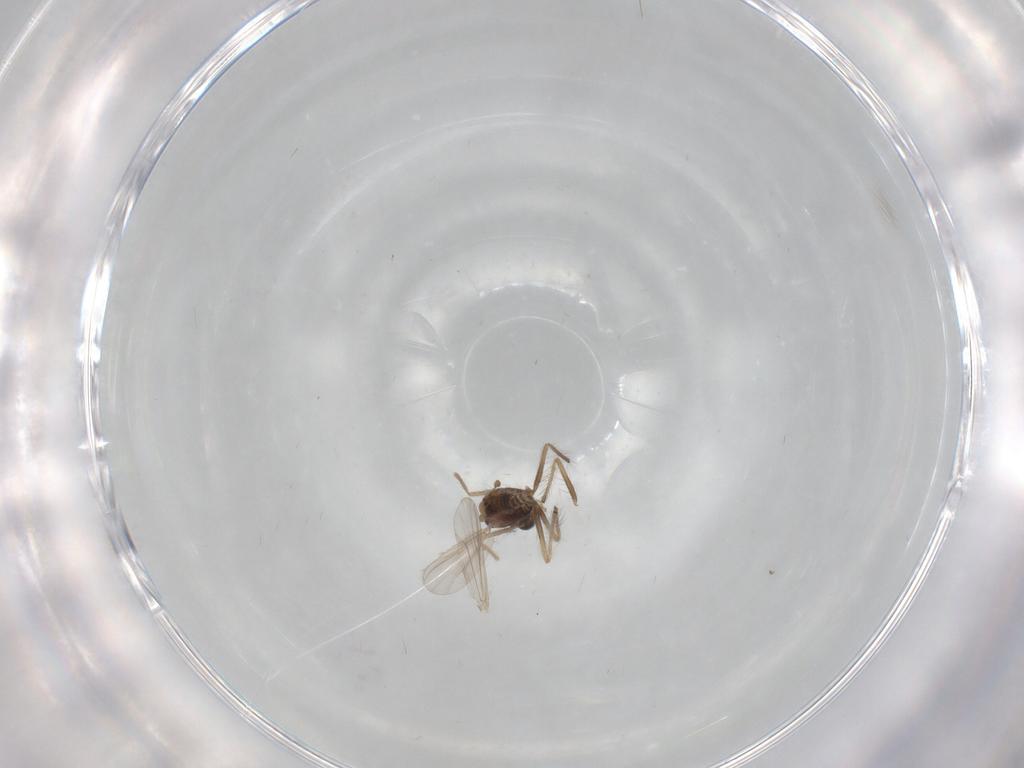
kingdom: Animalia
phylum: Arthropoda
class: Insecta
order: Diptera
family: Chironomidae
